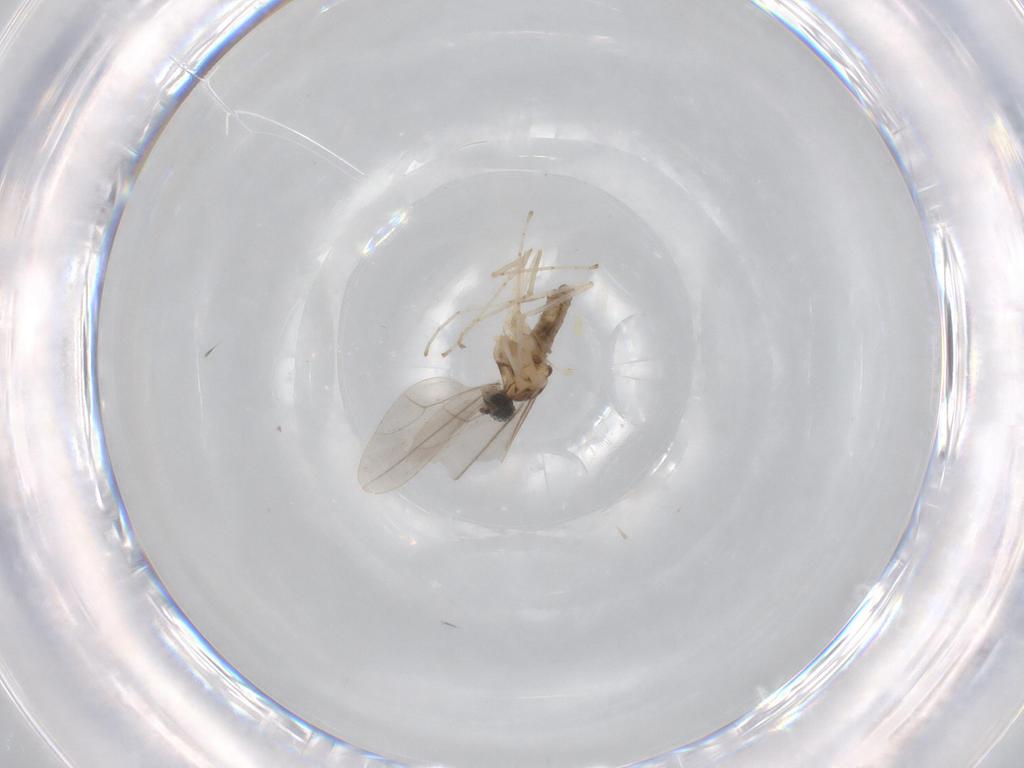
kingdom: Animalia
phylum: Arthropoda
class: Insecta
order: Diptera
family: Cecidomyiidae
